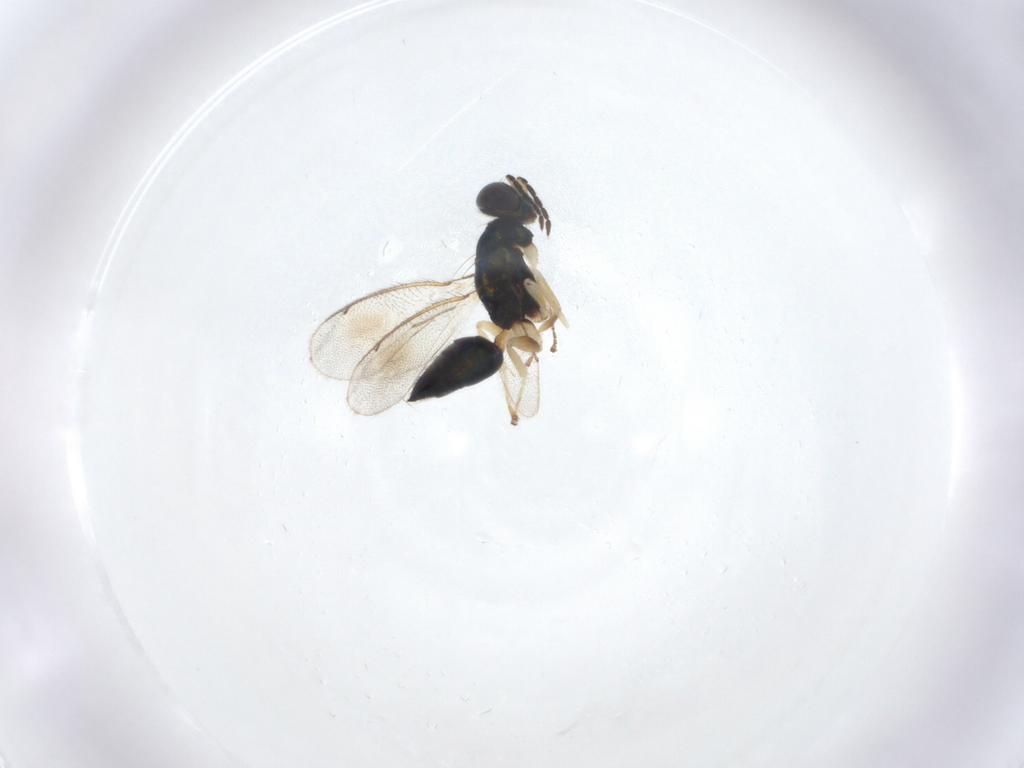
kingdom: Animalia
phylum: Arthropoda
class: Insecta
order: Hymenoptera
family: Eulophidae
